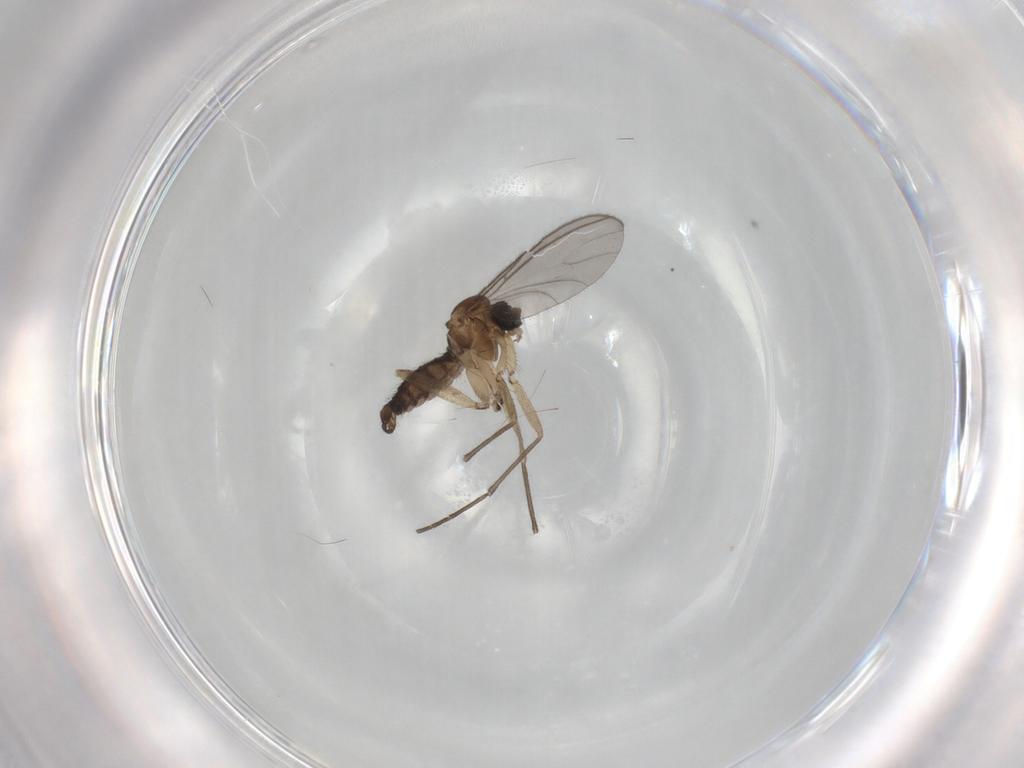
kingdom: Animalia
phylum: Arthropoda
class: Insecta
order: Diptera
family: Sciaridae
